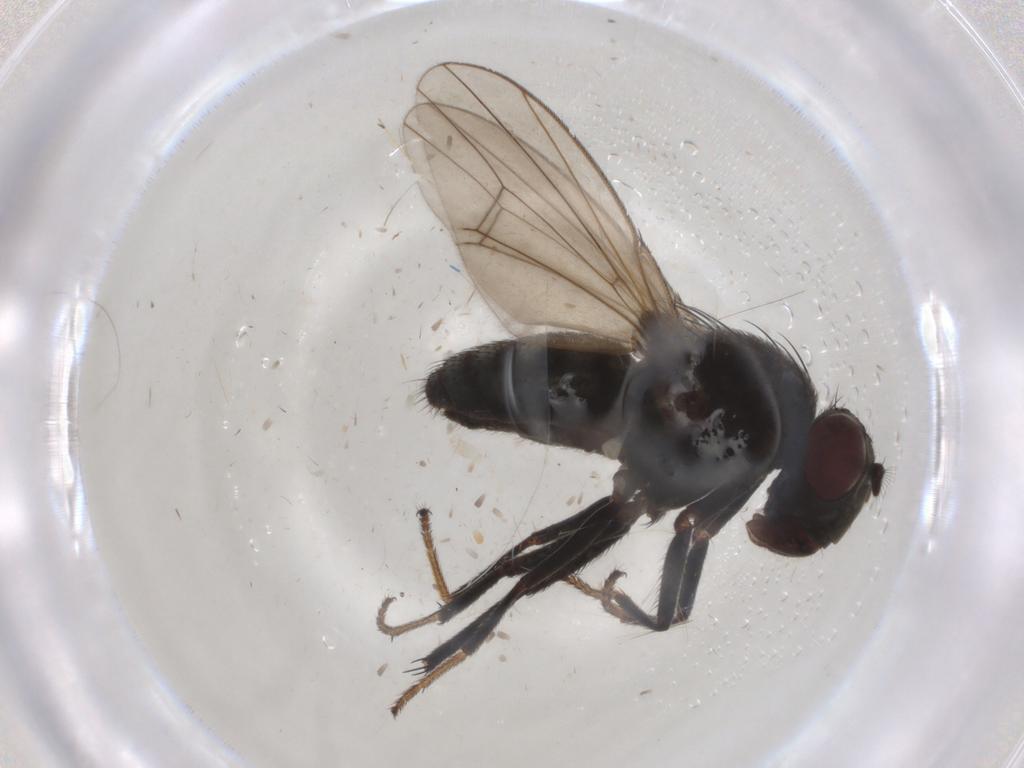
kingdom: Animalia
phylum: Arthropoda
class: Insecta
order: Diptera
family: Ephydridae
